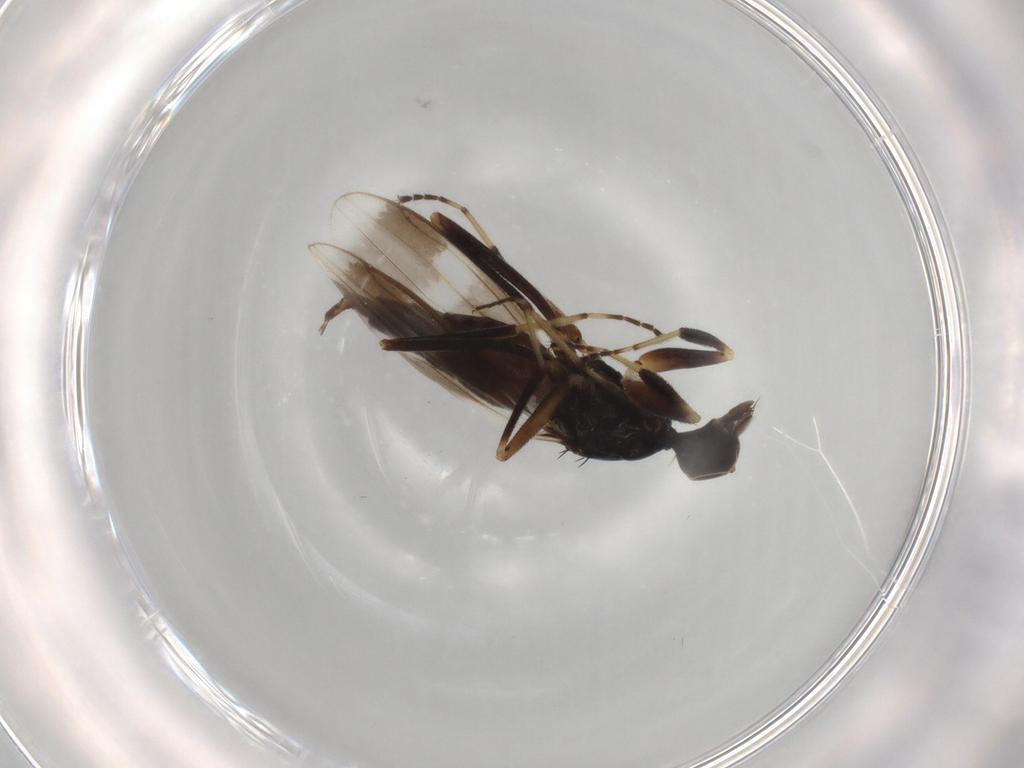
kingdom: Animalia
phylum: Arthropoda
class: Insecta
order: Diptera
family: Hybotidae
